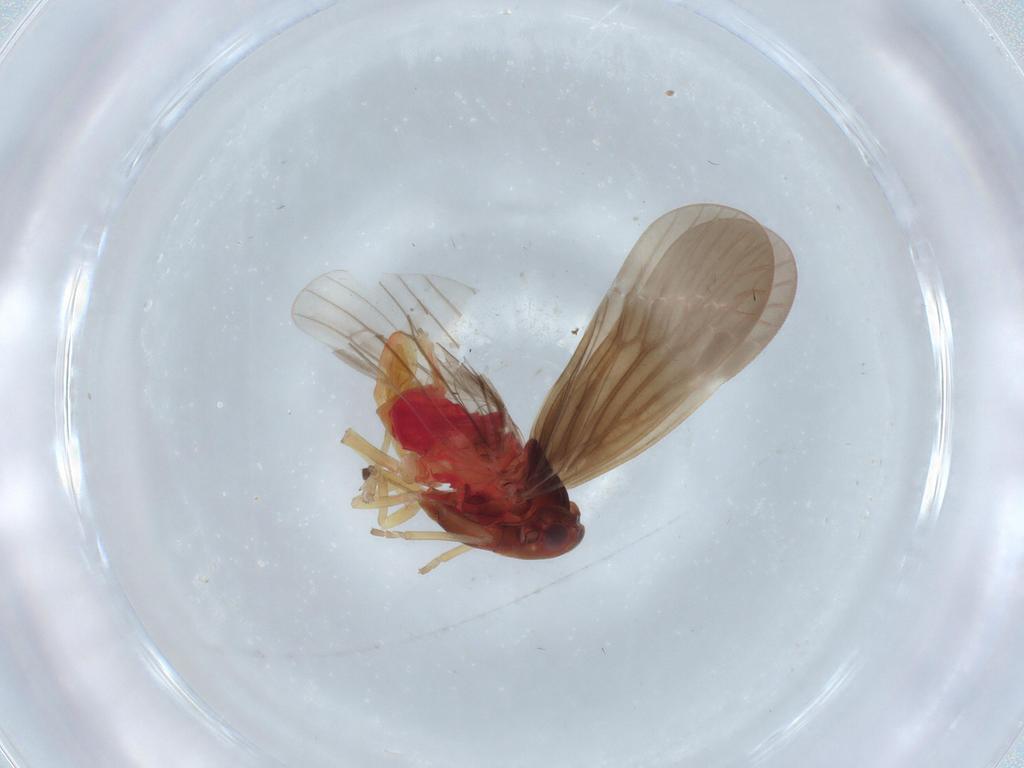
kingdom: Animalia
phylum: Arthropoda
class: Insecta
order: Hemiptera
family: Derbidae
